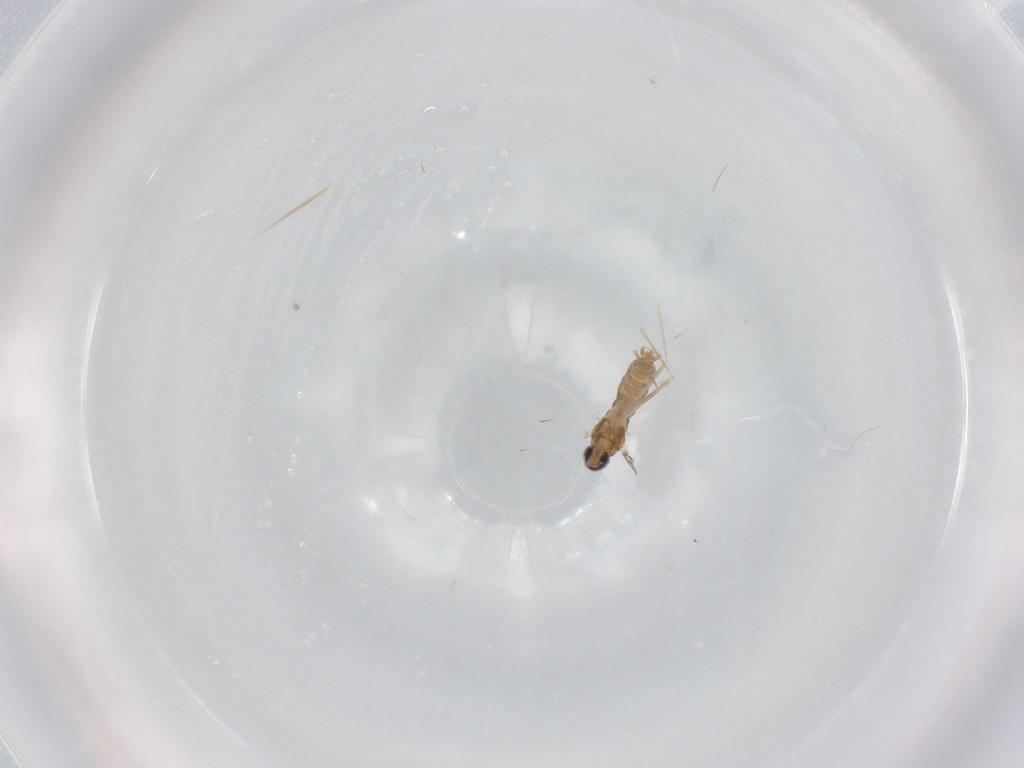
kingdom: Animalia
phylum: Arthropoda
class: Insecta
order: Diptera
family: Cecidomyiidae
